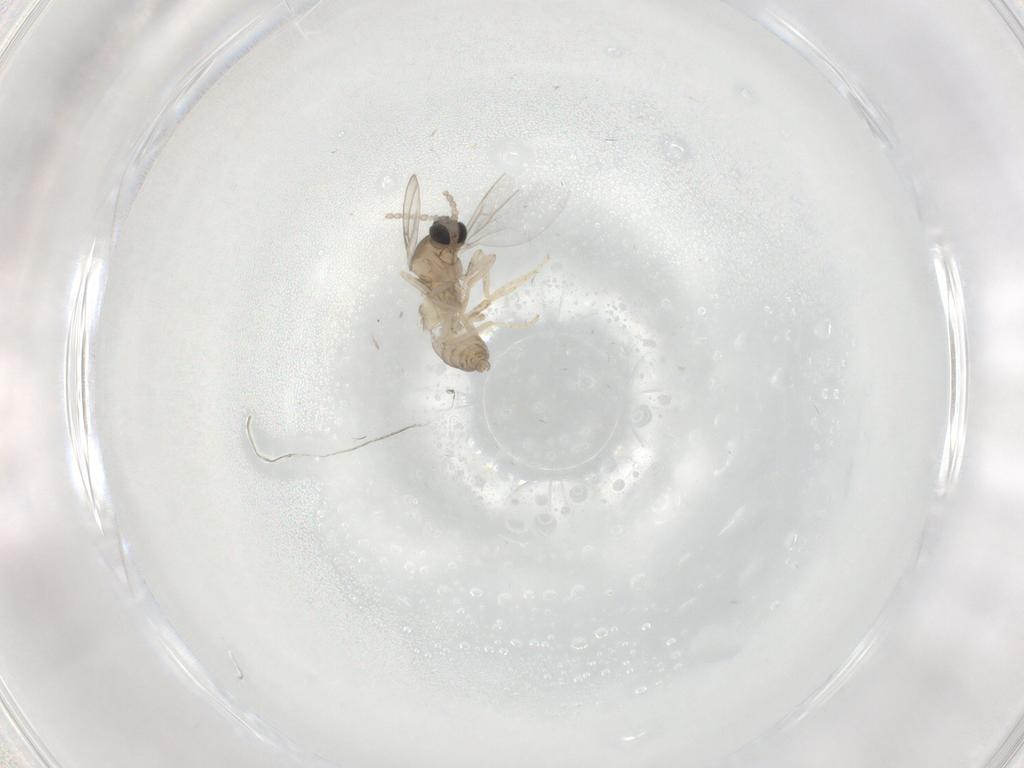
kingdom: Animalia
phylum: Arthropoda
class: Insecta
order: Diptera
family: Cecidomyiidae
